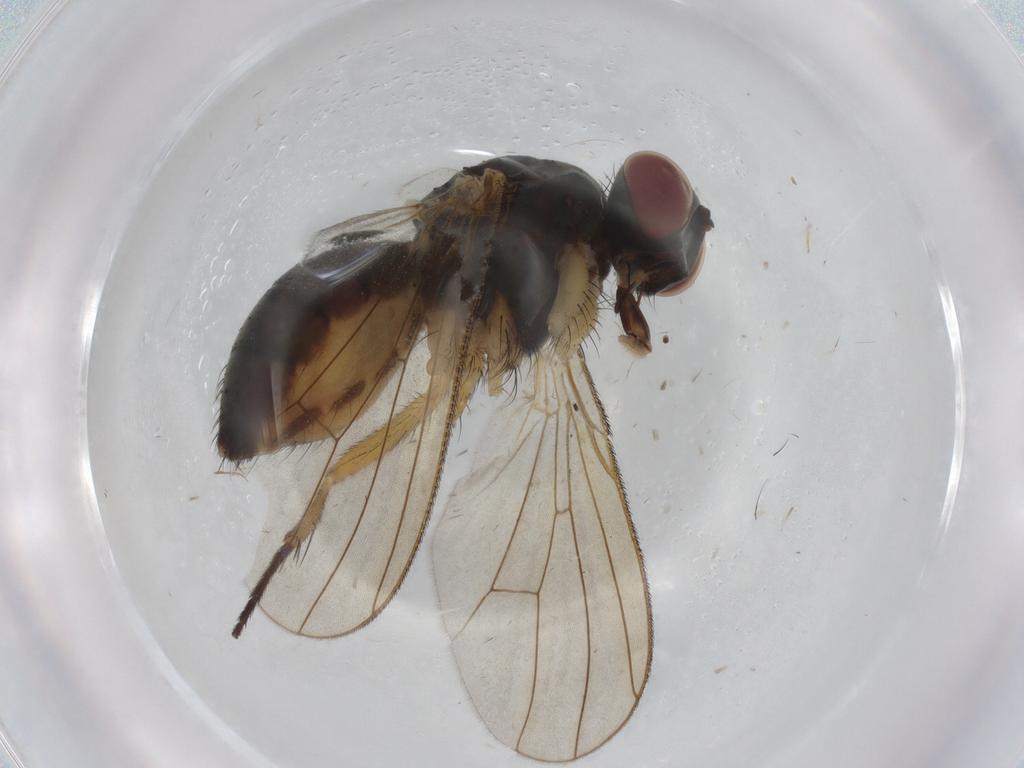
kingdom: Animalia
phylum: Arthropoda
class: Insecta
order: Diptera
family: Muscidae
